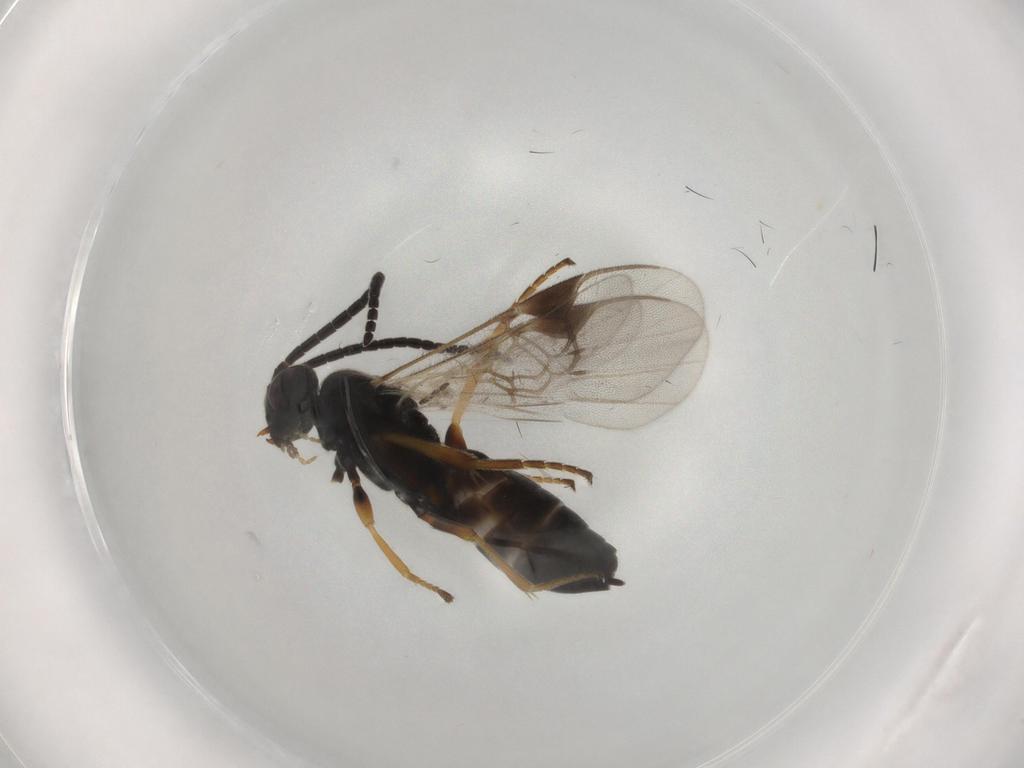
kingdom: Animalia
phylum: Arthropoda
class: Insecta
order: Hymenoptera
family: Braconidae
